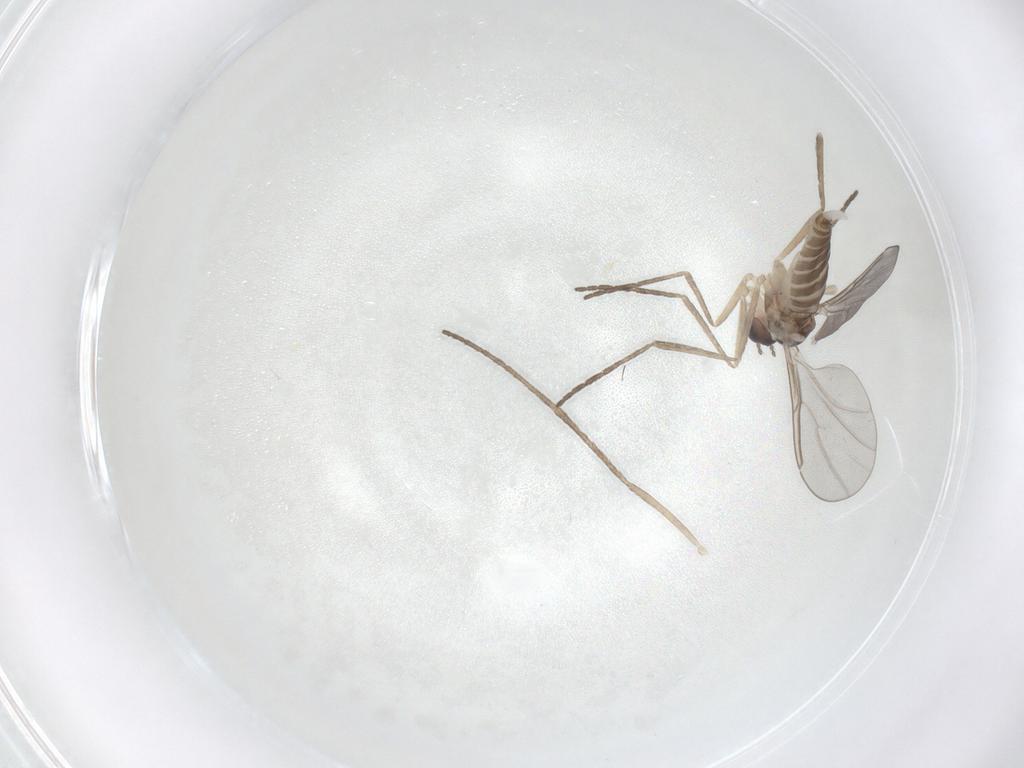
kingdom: Animalia
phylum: Arthropoda
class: Insecta
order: Diptera
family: Cecidomyiidae
